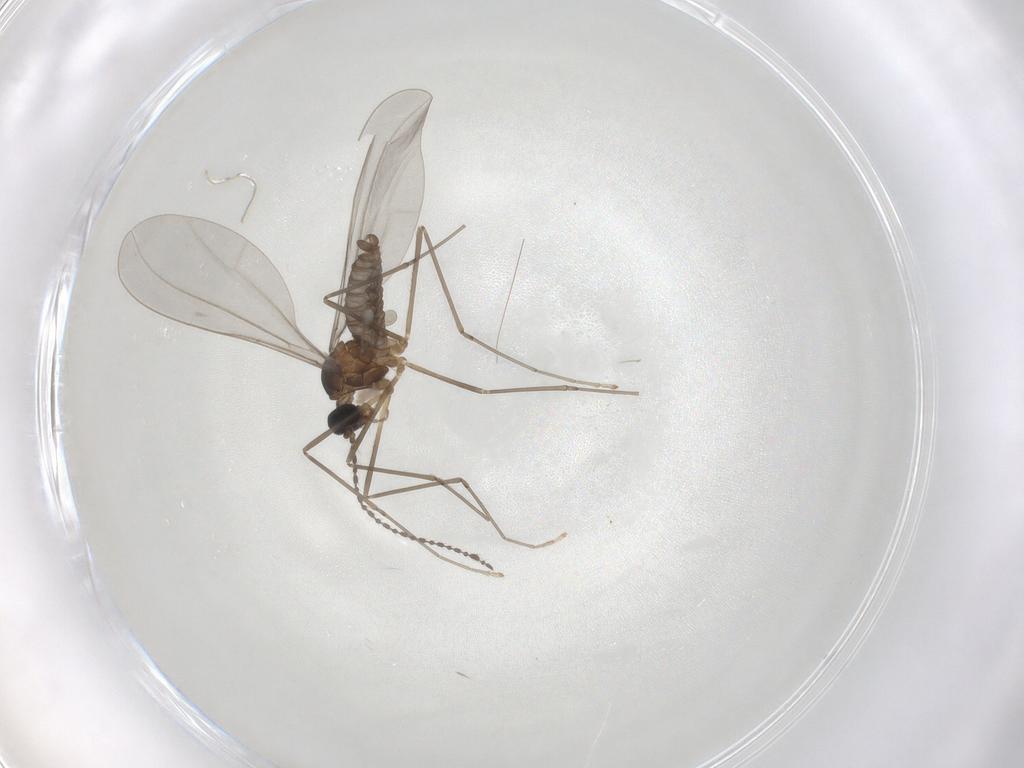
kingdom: Animalia
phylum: Arthropoda
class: Insecta
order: Diptera
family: Cecidomyiidae
